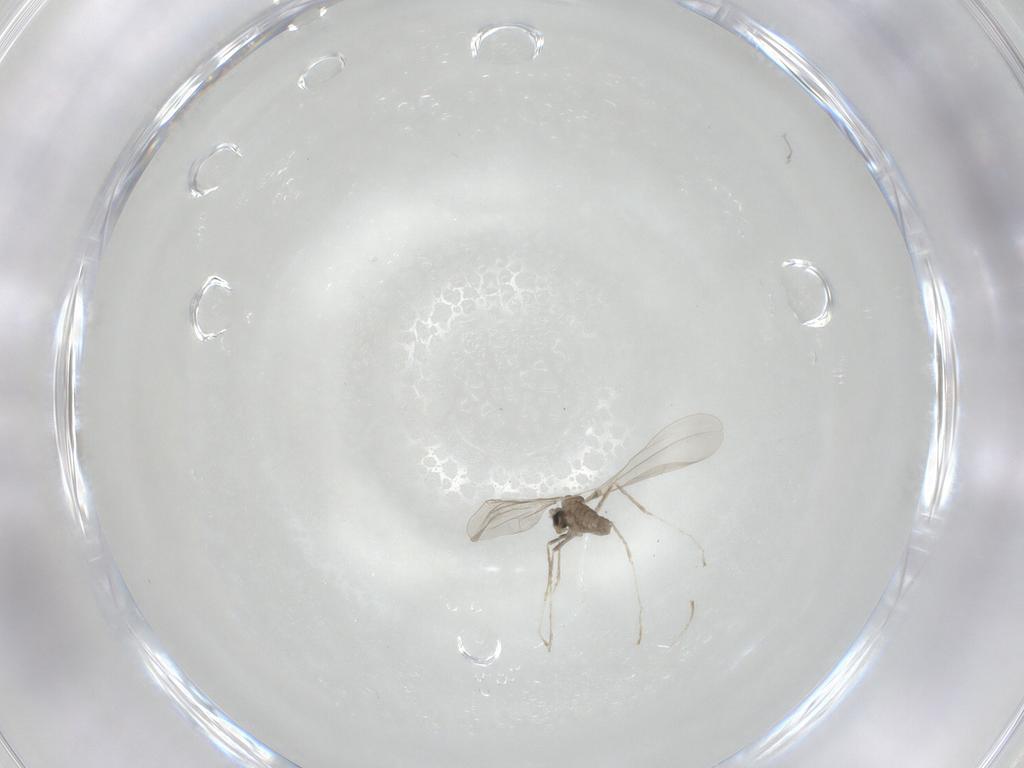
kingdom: Animalia
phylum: Arthropoda
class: Insecta
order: Diptera
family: Cecidomyiidae
